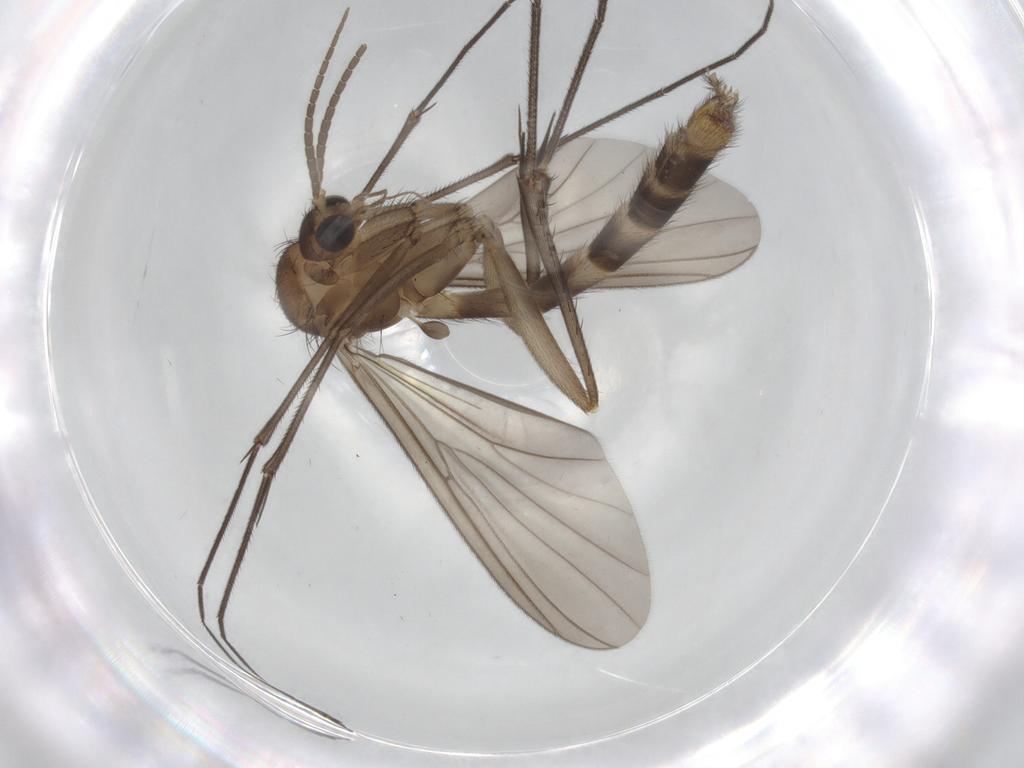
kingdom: Animalia
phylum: Arthropoda
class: Insecta
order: Diptera
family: Mycetophilidae
